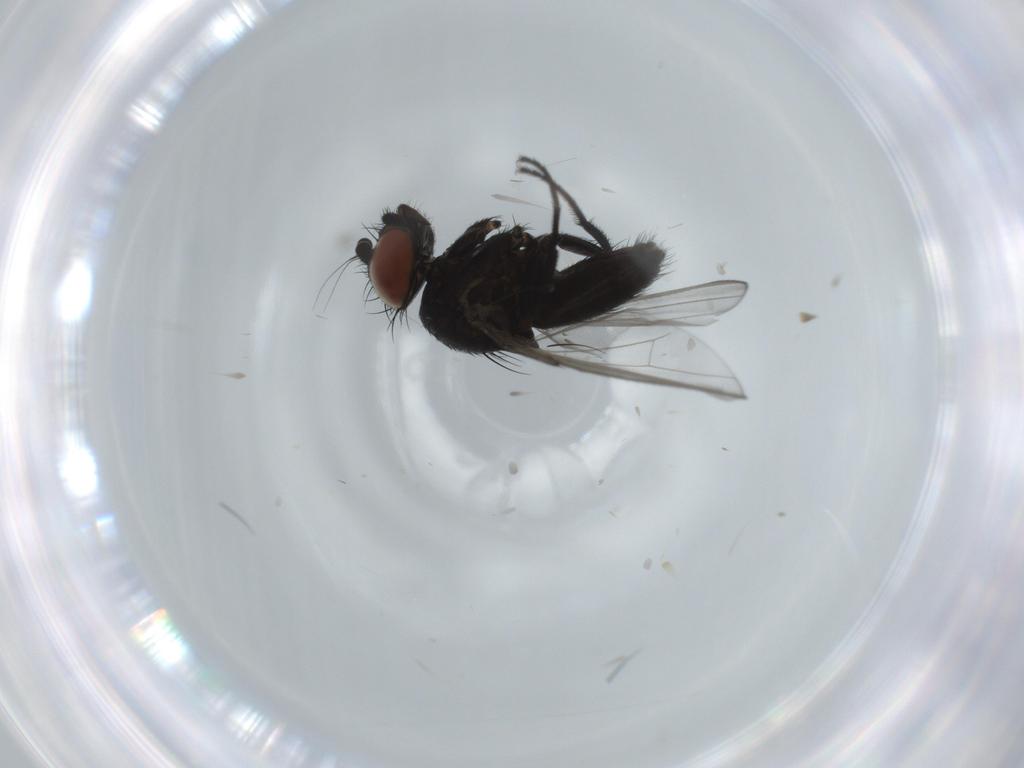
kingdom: Animalia
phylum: Arthropoda
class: Insecta
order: Diptera
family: Milichiidae
